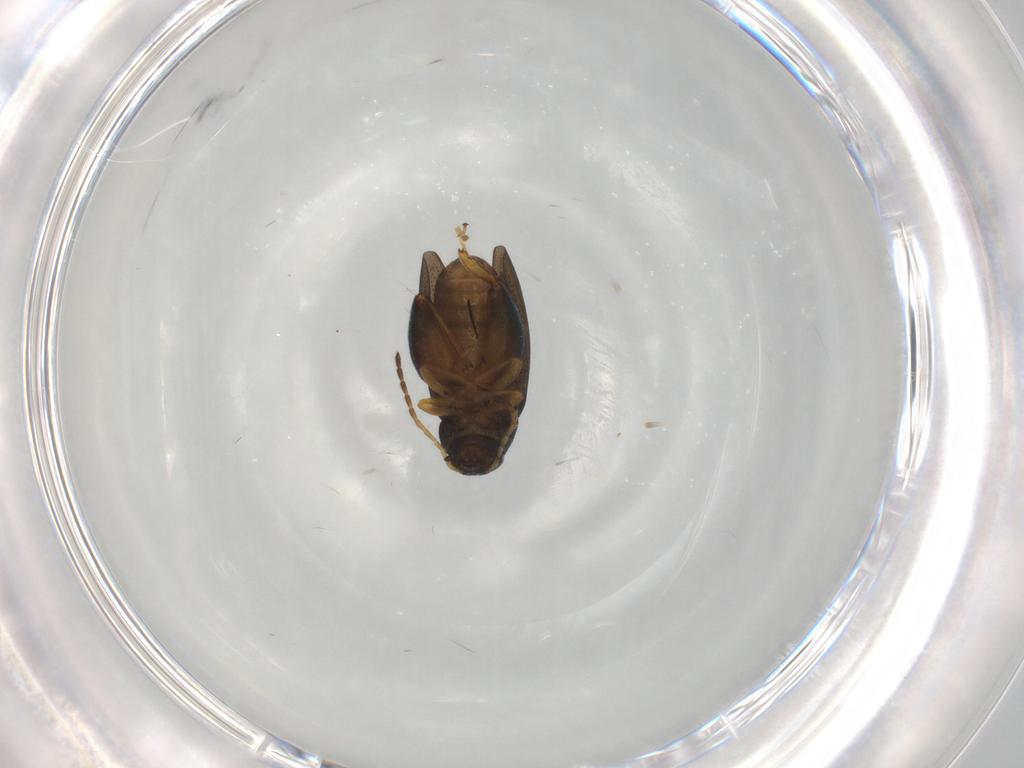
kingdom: Animalia
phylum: Arthropoda
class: Insecta
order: Coleoptera
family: Chrysomelidae
